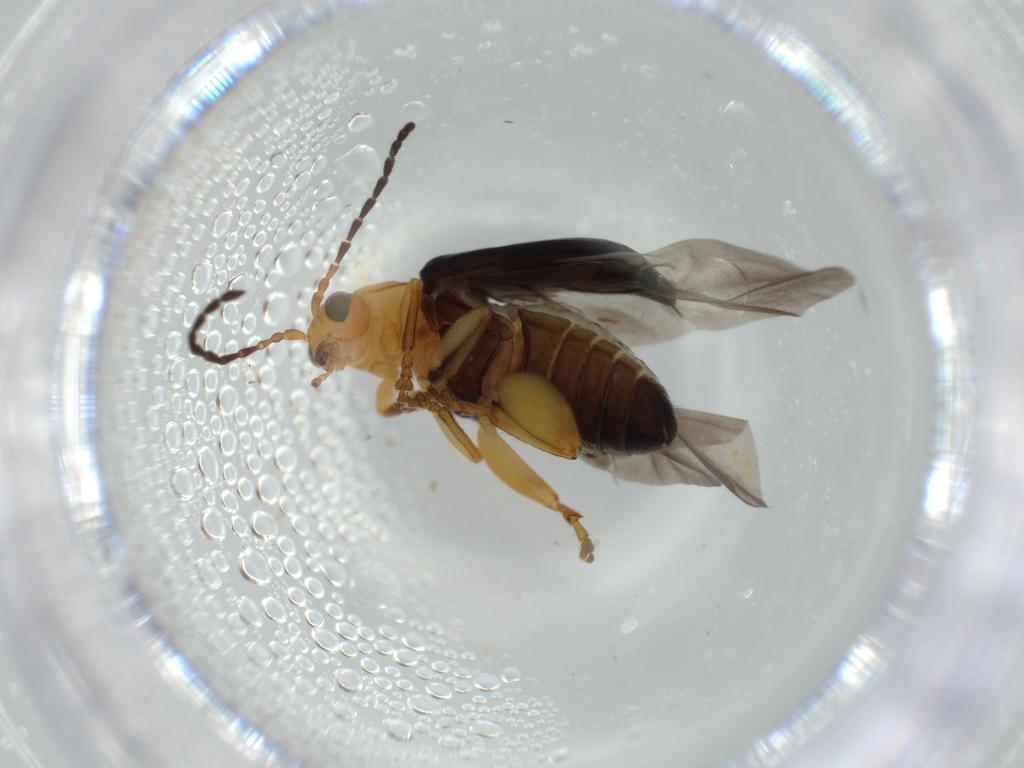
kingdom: Animalia
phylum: Arthropoda
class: Insecta
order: Coleoptera
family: Chrysomelidae
